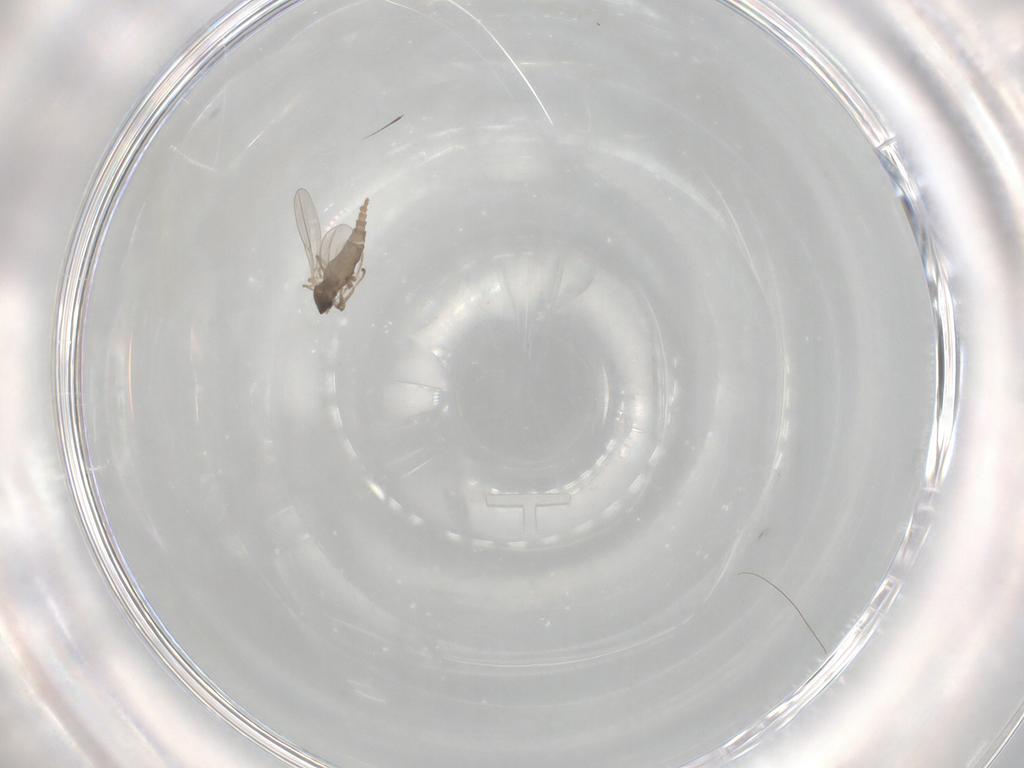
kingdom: Animalia
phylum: Arthropoda
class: Insecta
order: Diptera
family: Cecidomyiidae
